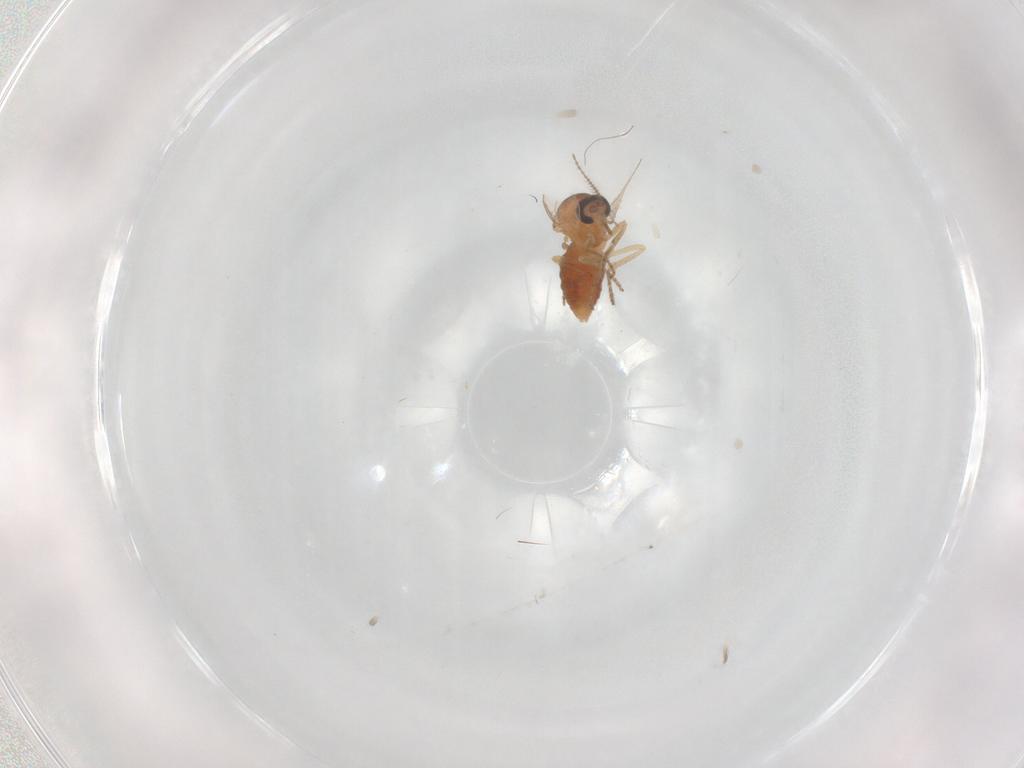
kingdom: Animalia
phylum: Arthropoda
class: Insecta
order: Diptera
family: Ceratopogonidae
